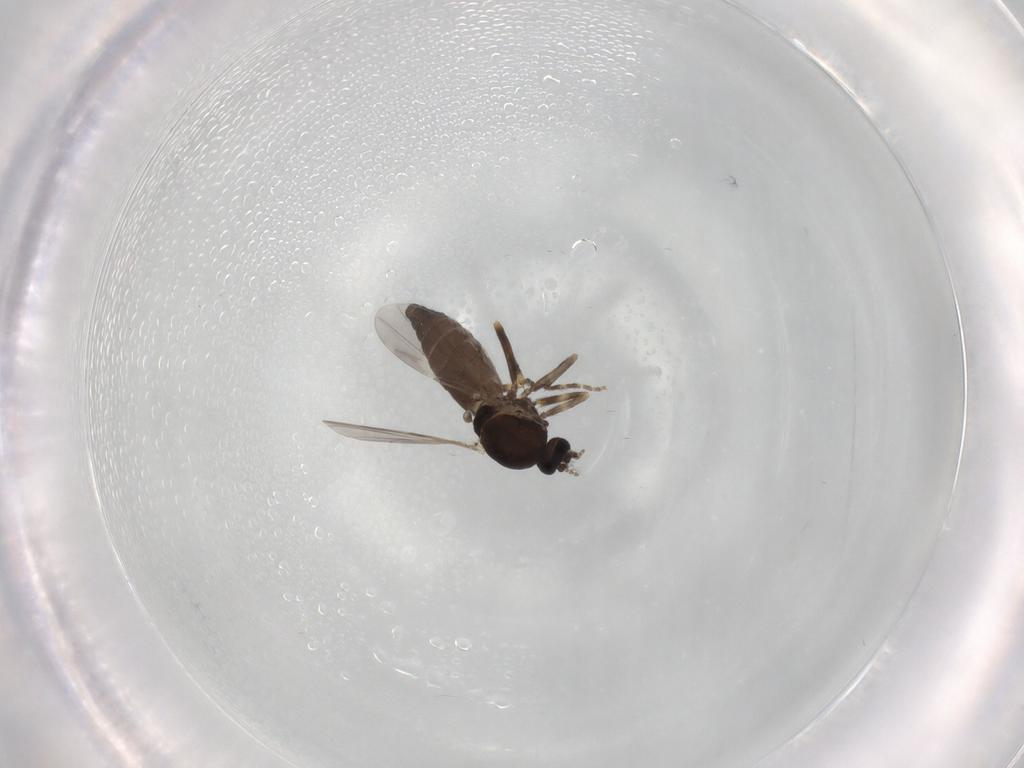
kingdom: Animalia
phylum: Arthropoda
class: Insecta
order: Diptera
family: Ceratopogonidae
